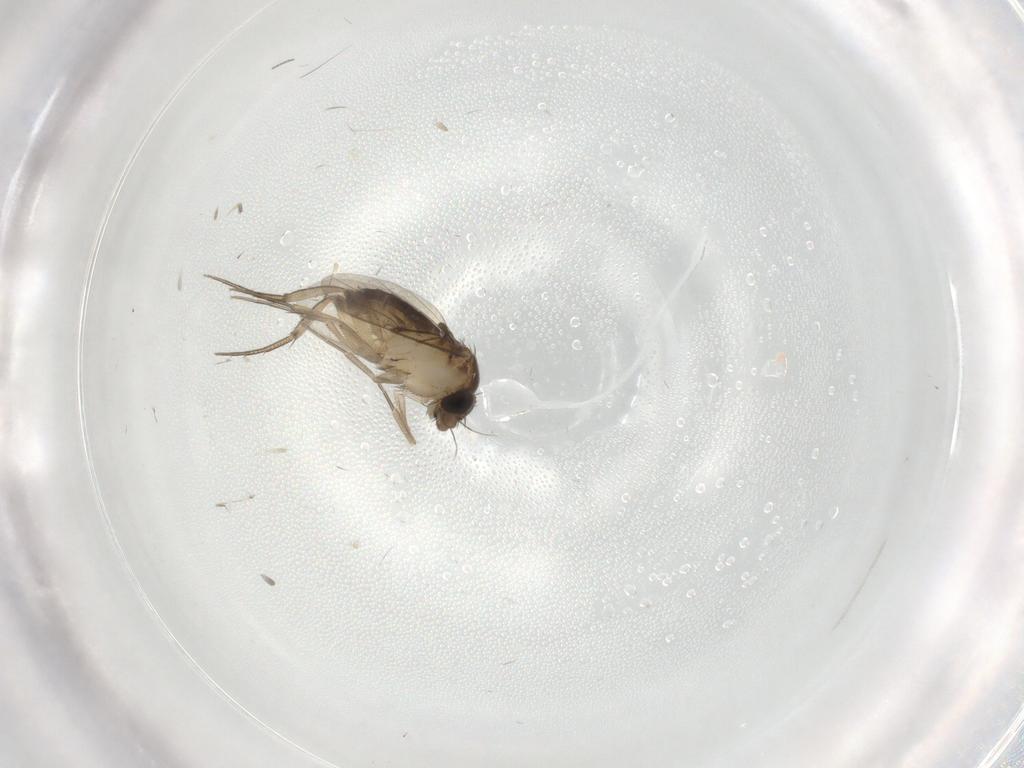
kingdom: Animalia
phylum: Arthropoda
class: Insecta
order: Diptera
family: Phoridae
